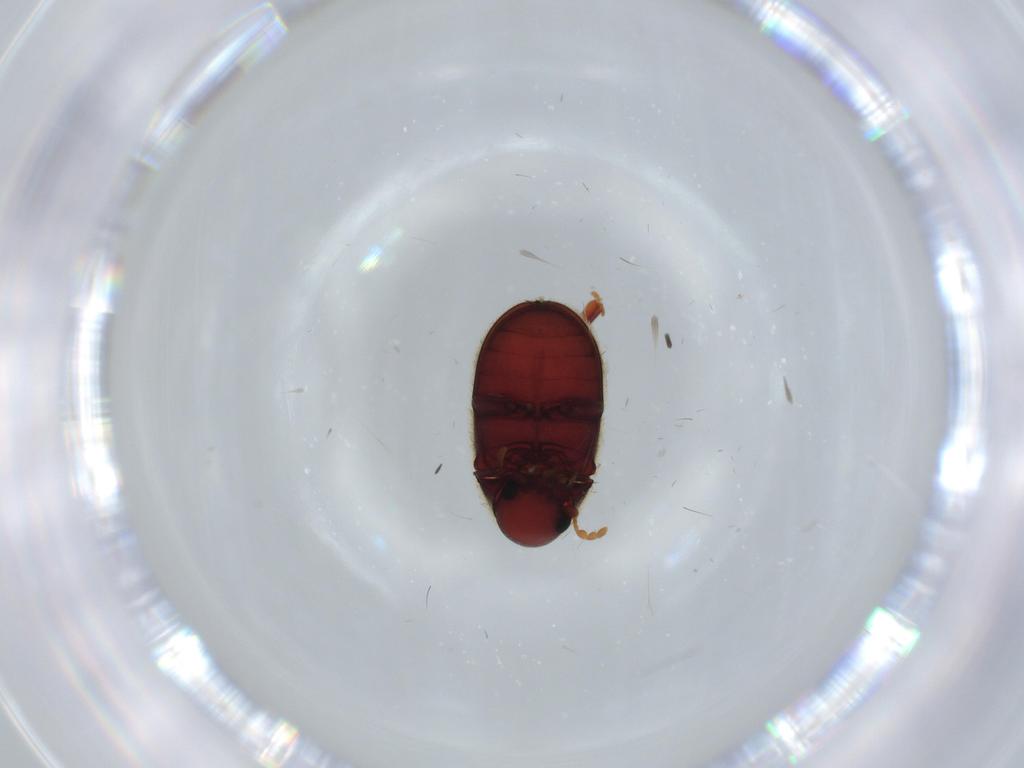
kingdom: Animalia
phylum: Arthropoda
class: Insecta
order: Coleoptera
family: Ptinidae
